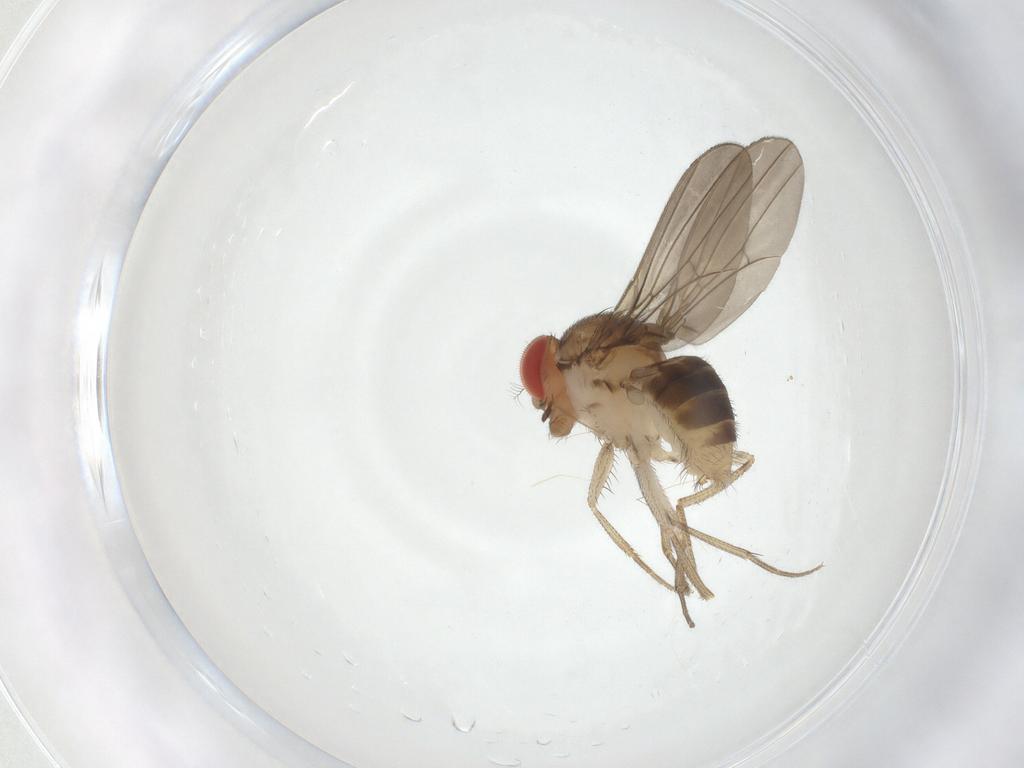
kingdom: Animalia
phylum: Arthropoda
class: Insecta
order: Diptera
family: Drosophilidae
